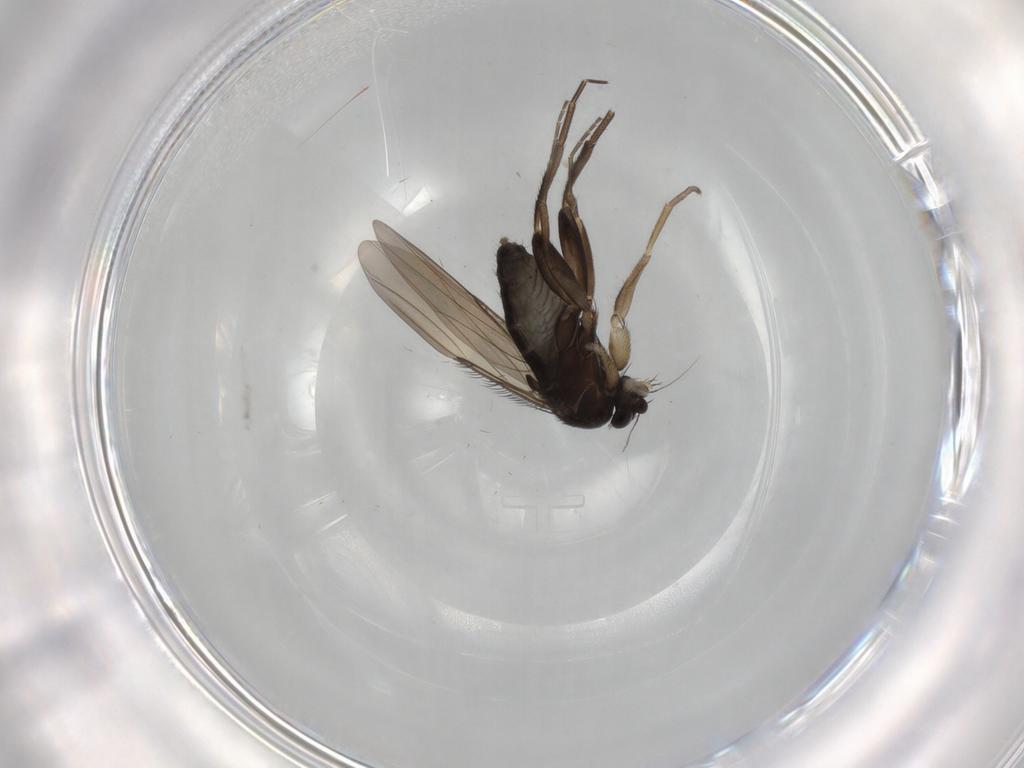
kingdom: Animalia
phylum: Arthropoda
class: Insecta
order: Diptera
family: Phoridae
